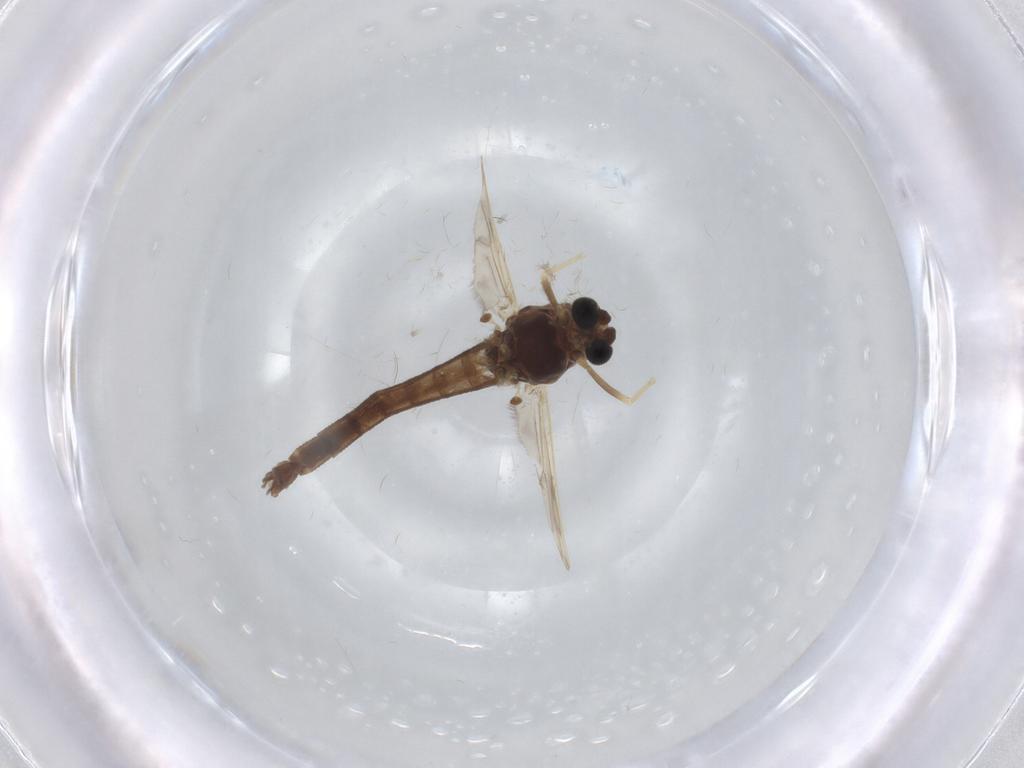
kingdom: Animalia
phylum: Arthropoda
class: Insecta
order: Diptera
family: Chironomidae
